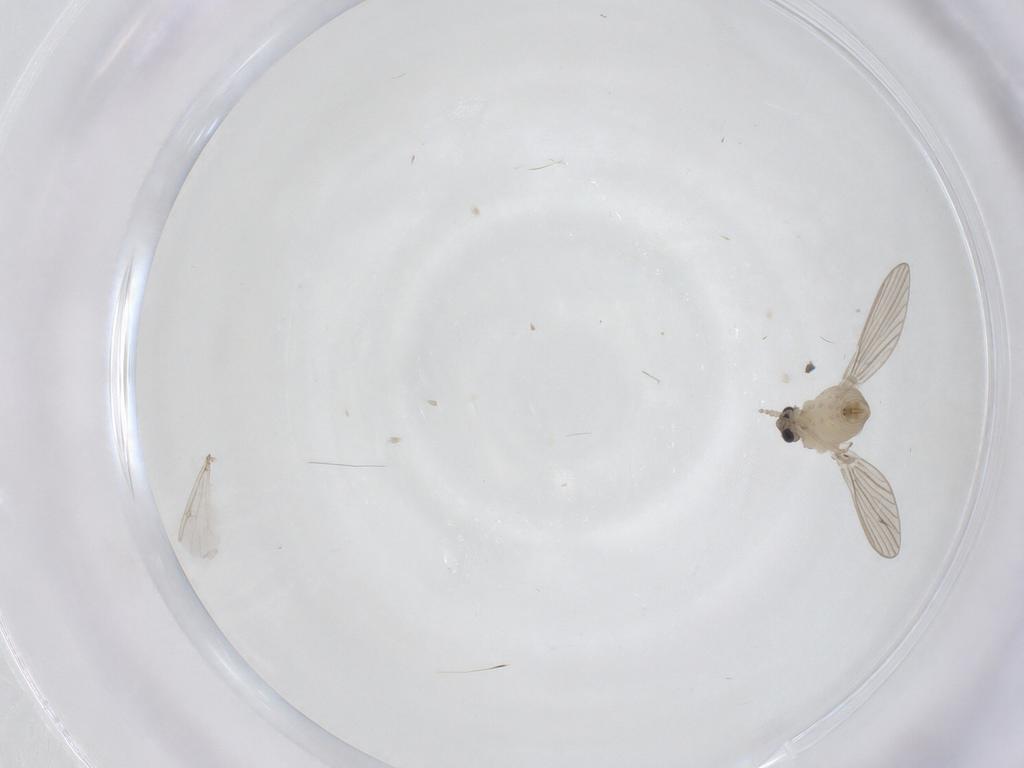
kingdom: Animalia
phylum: Arthropoda
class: Insecta
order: Diptera
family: Psychodidae
